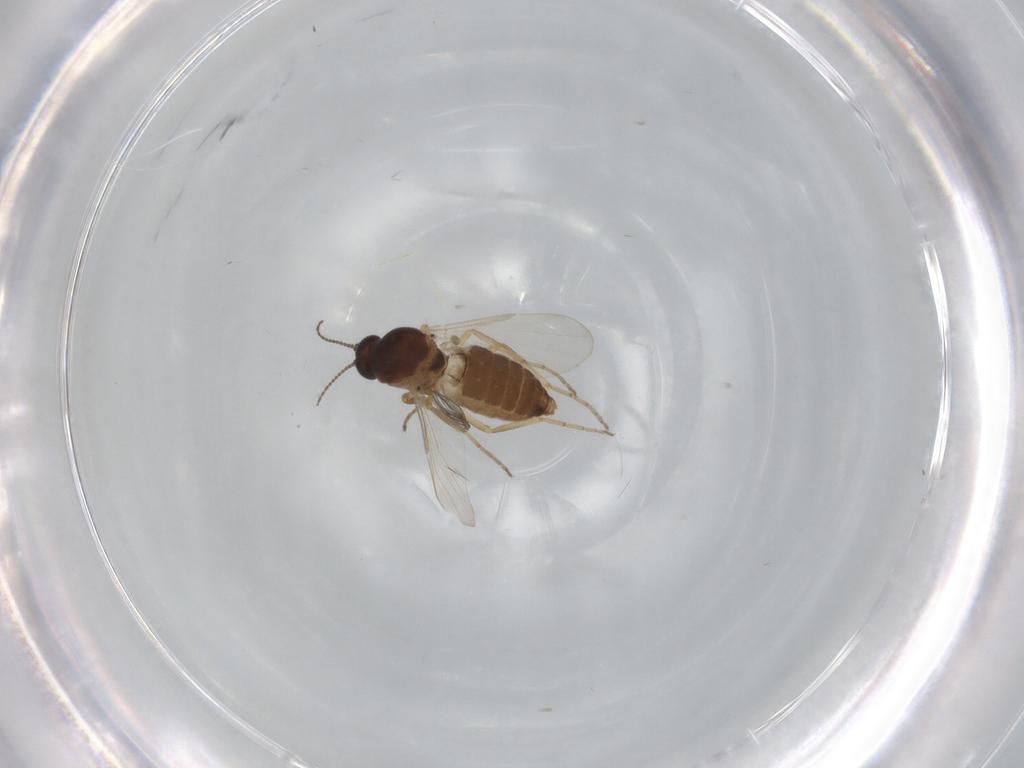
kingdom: Animalia
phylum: Arthropoda
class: Insecta
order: Diptera
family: Ceratopogonidae
